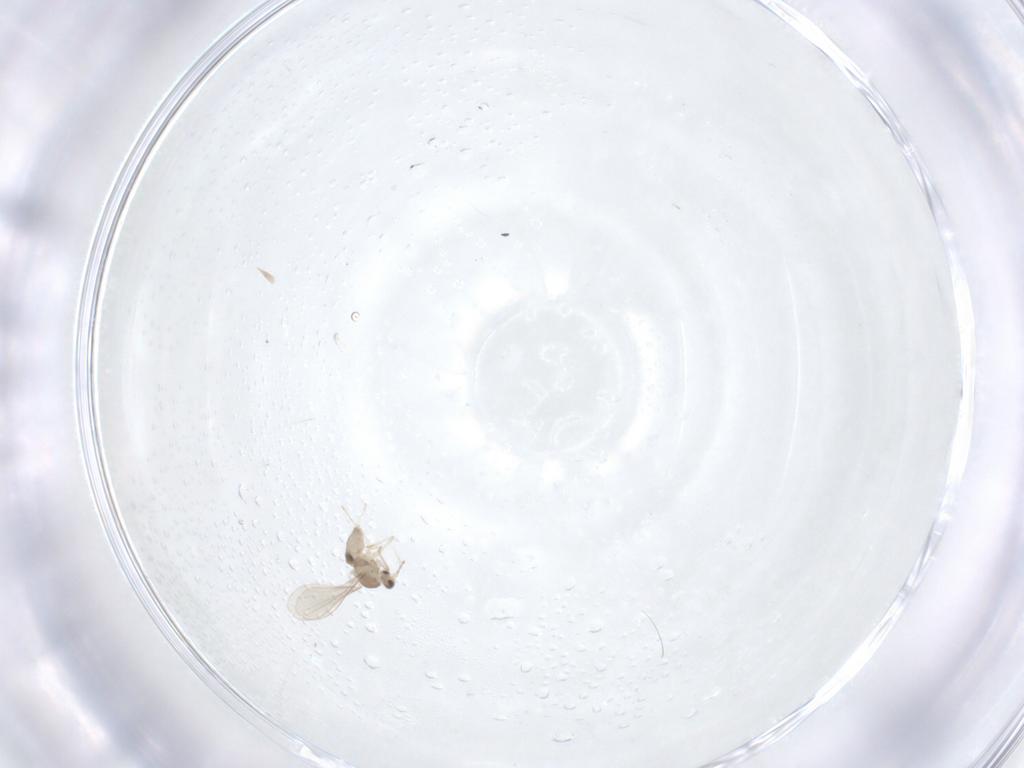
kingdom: Animalia
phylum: Arthropoda
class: Insecta
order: Diptera
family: Cecidomyiidae
